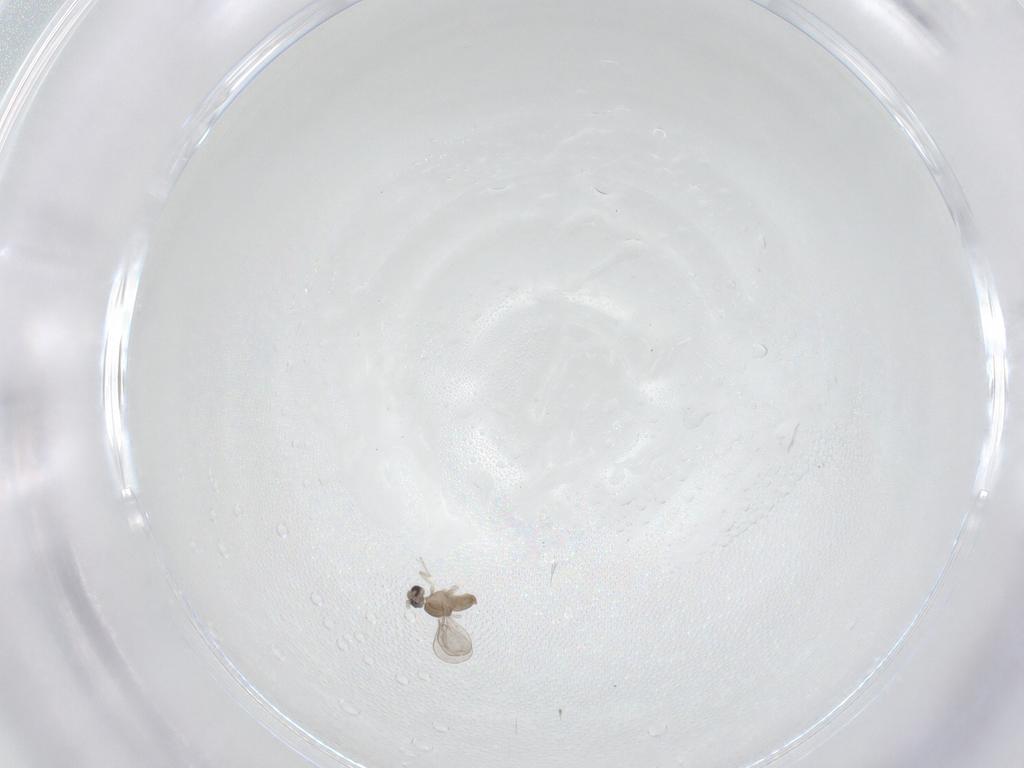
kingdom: Animalia
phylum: Arthropoda
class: Insecta
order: Diptera
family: Cecidomyiidae
